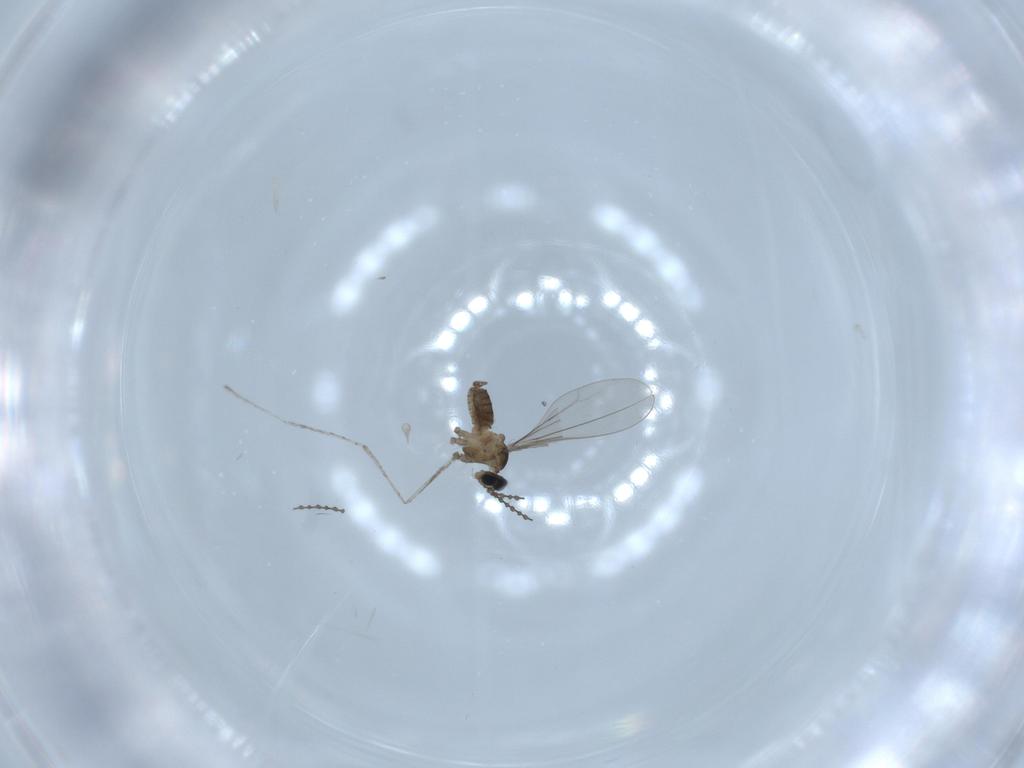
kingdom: Animalia
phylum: Arthropoda
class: Insecta
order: Diptera
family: Cecidomyiidae
